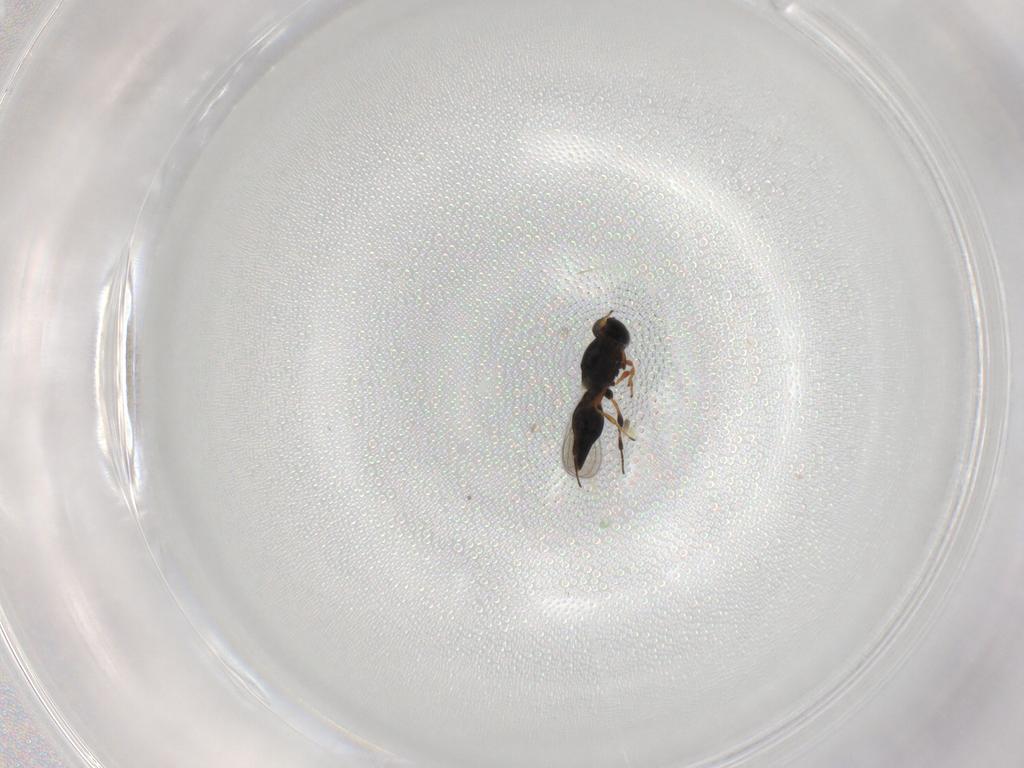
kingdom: Animalia
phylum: Arthropoda
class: Insecta
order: Hymenoptera
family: Platygastridae
